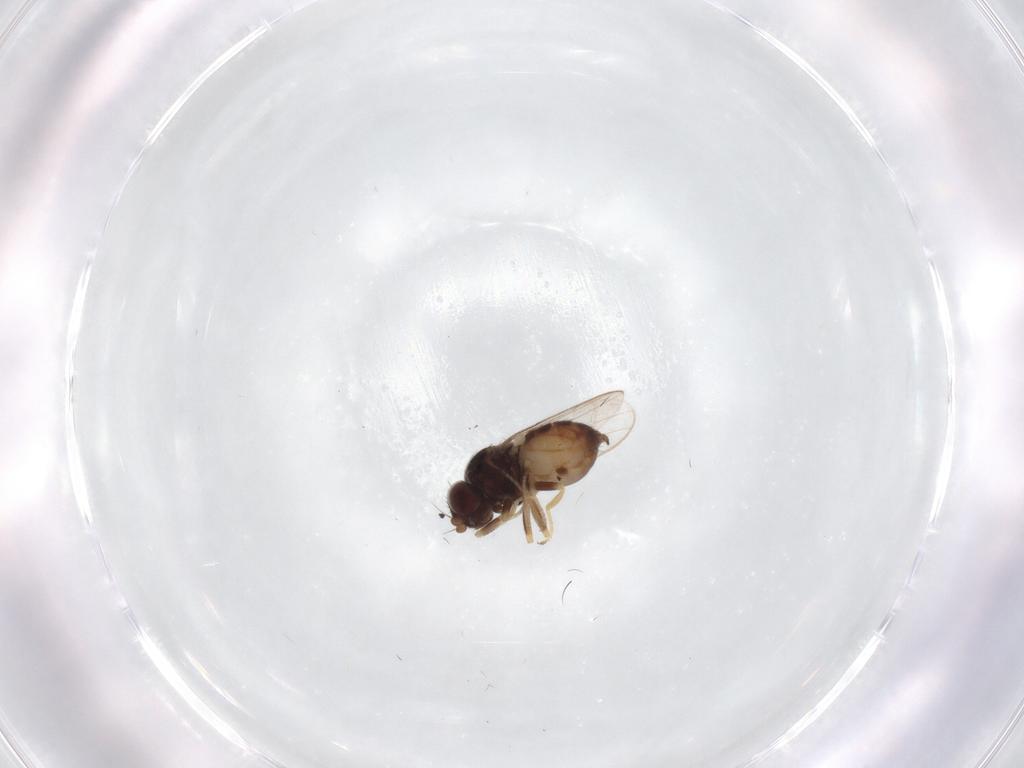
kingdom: Animalia
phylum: Arthropoda
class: Insecta
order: Diptera
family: Chloropidae
